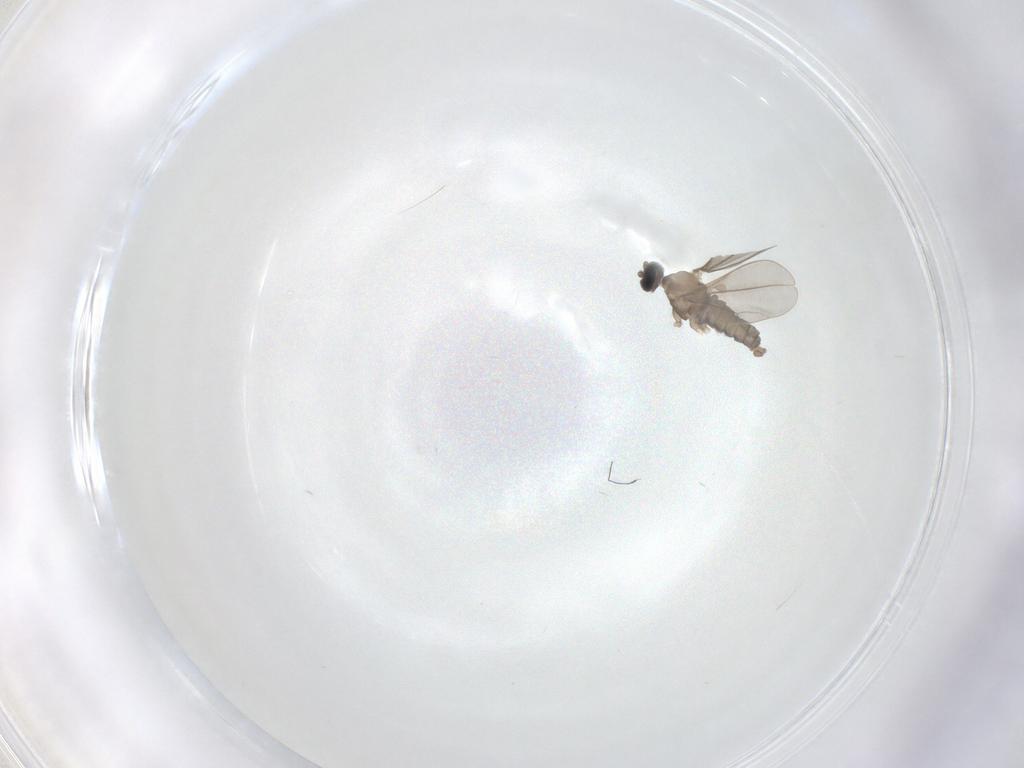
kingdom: Animalia
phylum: Arthropoda
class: Insecta
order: Diptera
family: Cecidomyiidae
